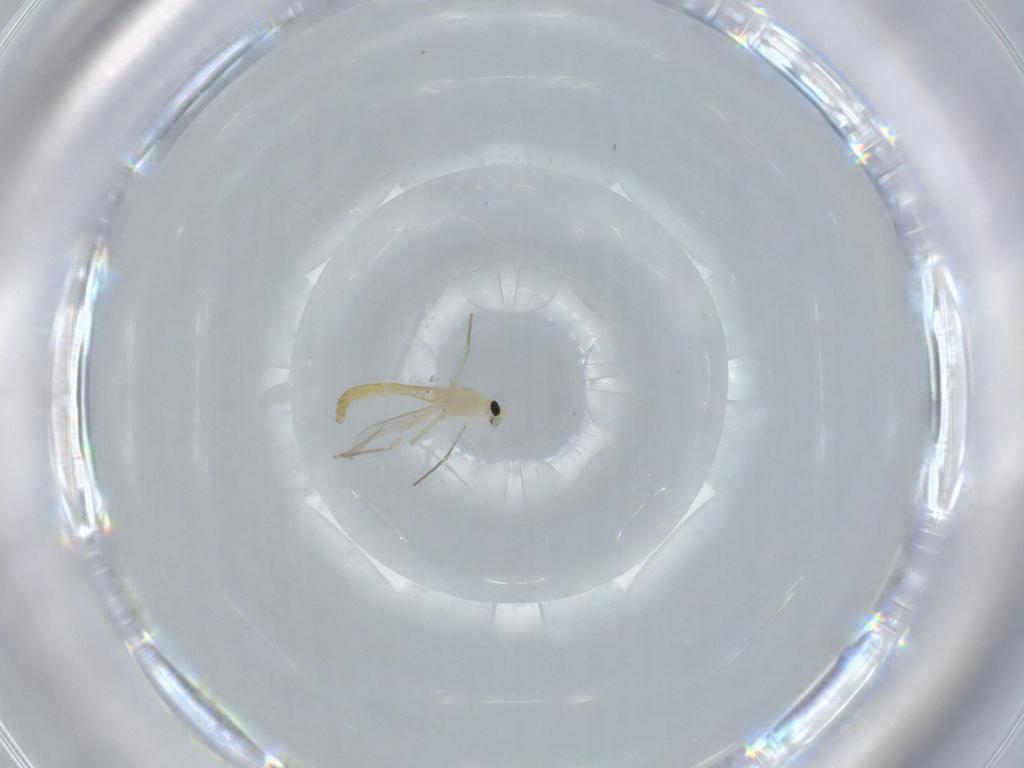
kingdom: Animalia
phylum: Arthropoda
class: Insecta
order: Diptera
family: Chironomidae
